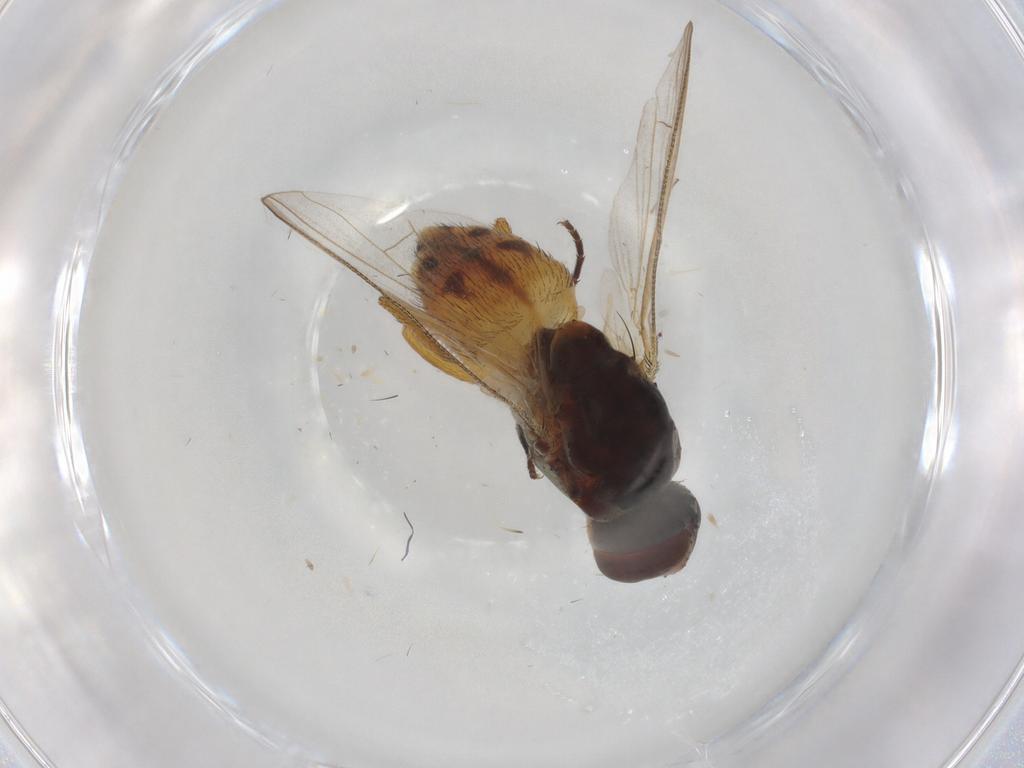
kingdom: Animalia
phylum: Arthropoda
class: Insecta
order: Diptera
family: Muscidae
